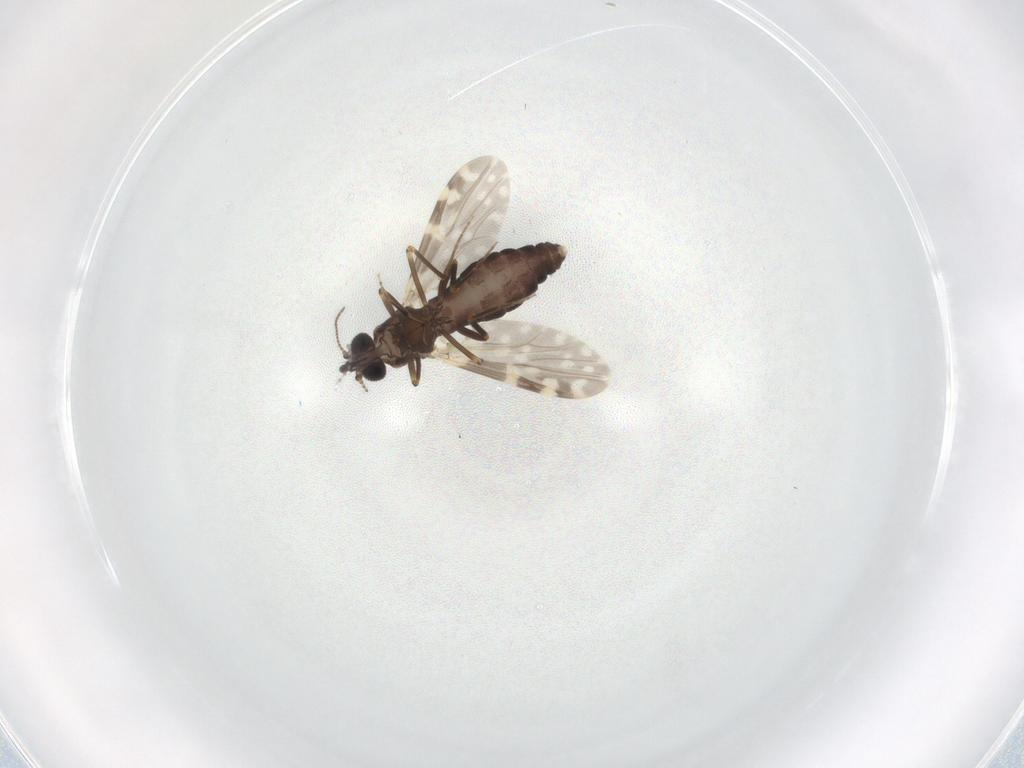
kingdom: Animalia
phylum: Arthropoda
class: Insecta
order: Diptera
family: Ceratopogonidae
